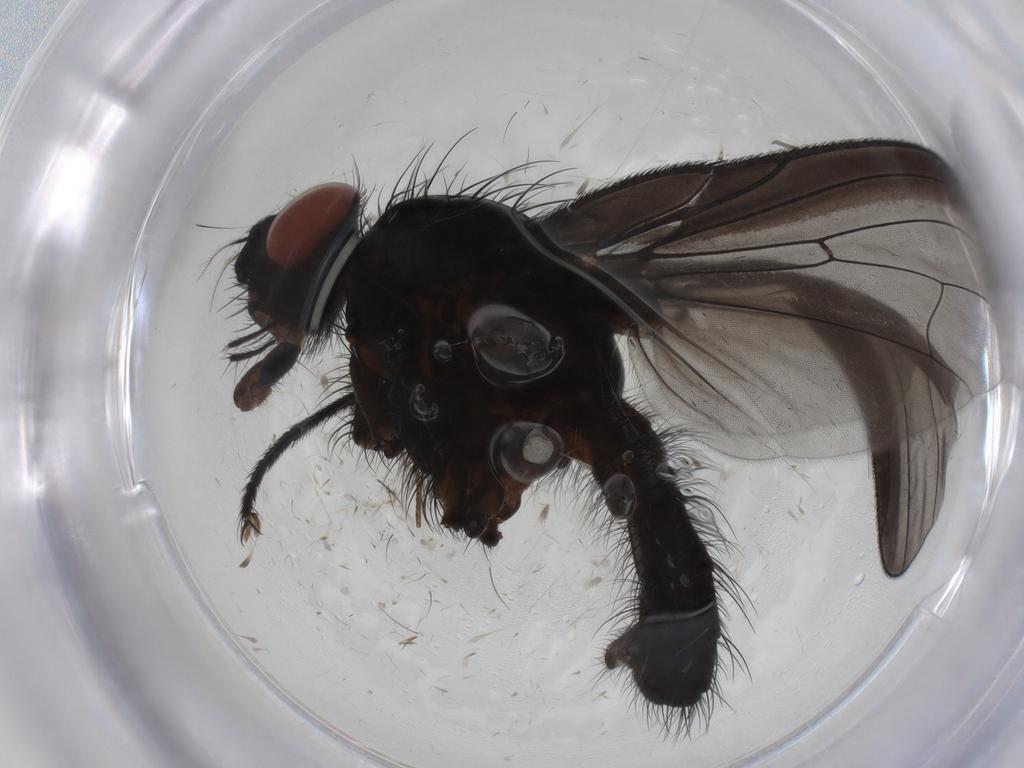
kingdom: Animalia
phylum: Arthropoda
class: Insecta
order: Diptera
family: Anthomyiidae
